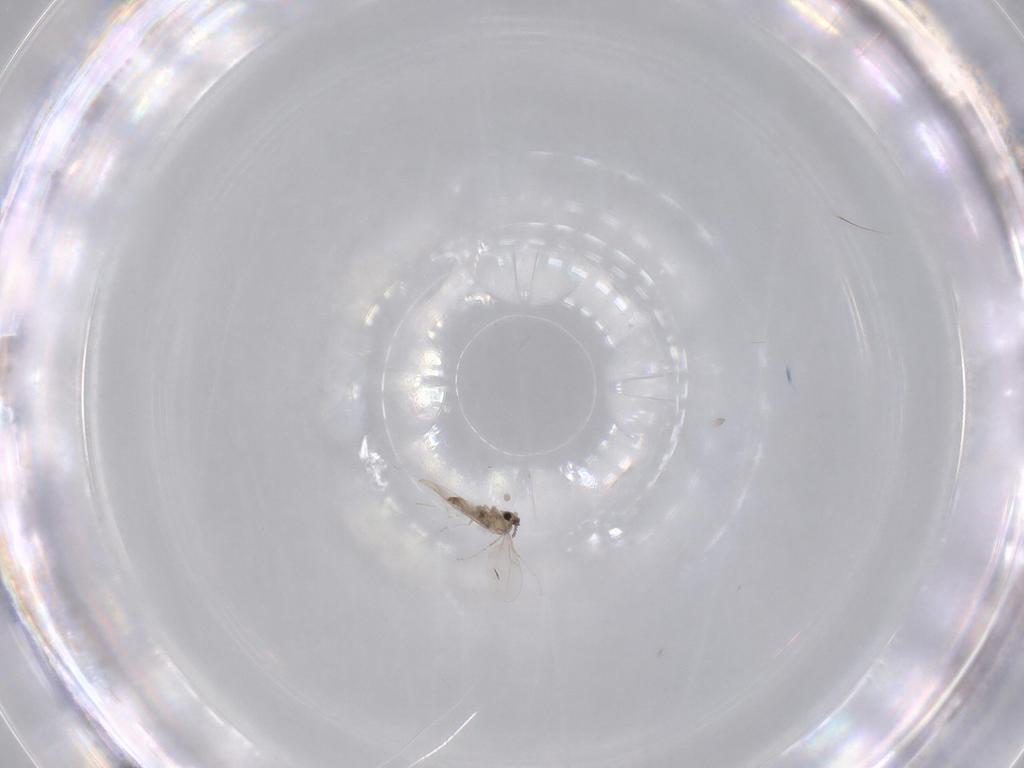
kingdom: Animalia
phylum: Arthropoda
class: Insecta
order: Diptera
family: Cecidomyiidae
